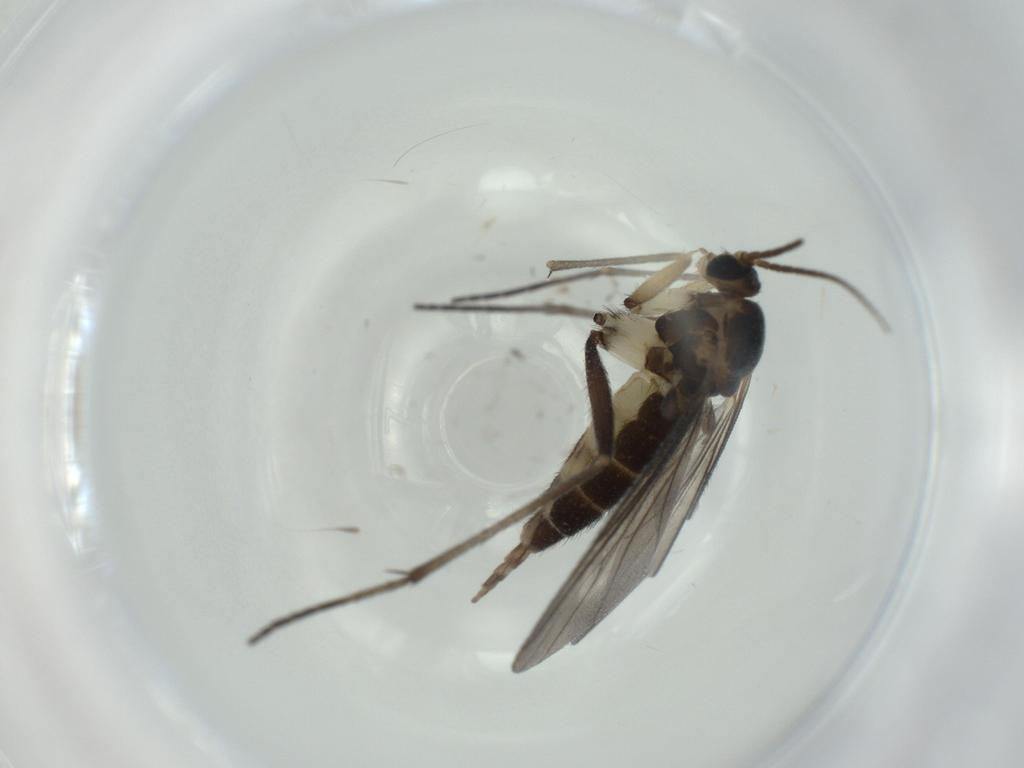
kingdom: Animalia
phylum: Arthropoda
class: Insecta
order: Diptera
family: Sciaridae
